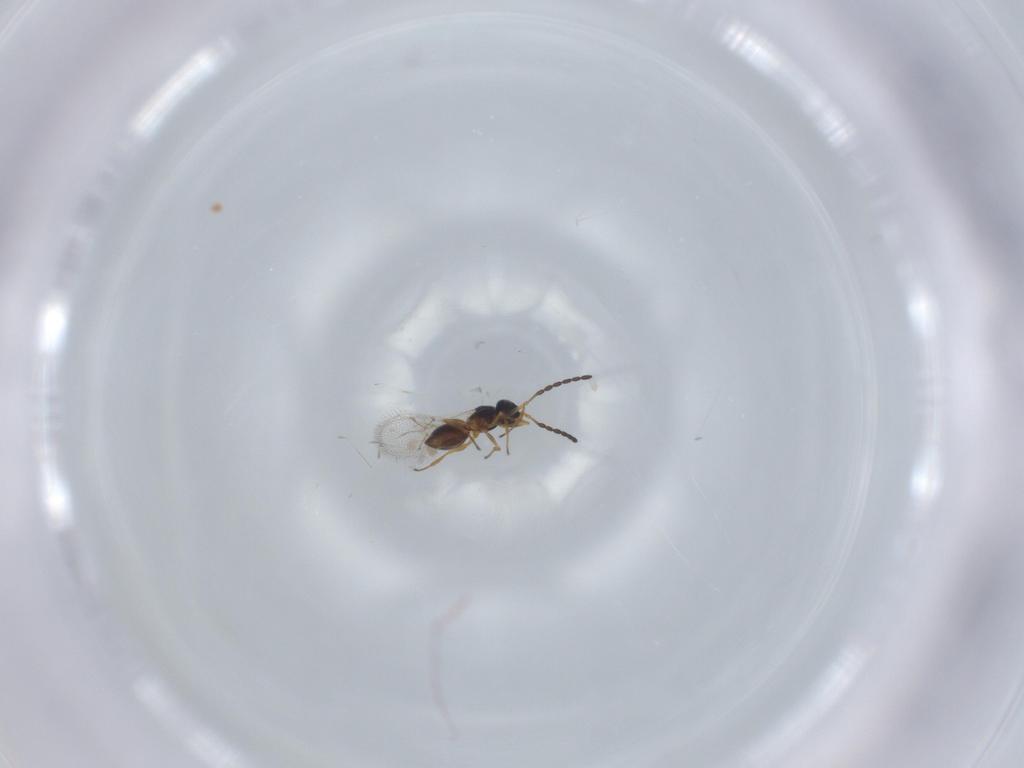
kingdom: Animalia
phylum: Arthropoda
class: Insecta
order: Hymenoptera
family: Figitidae
